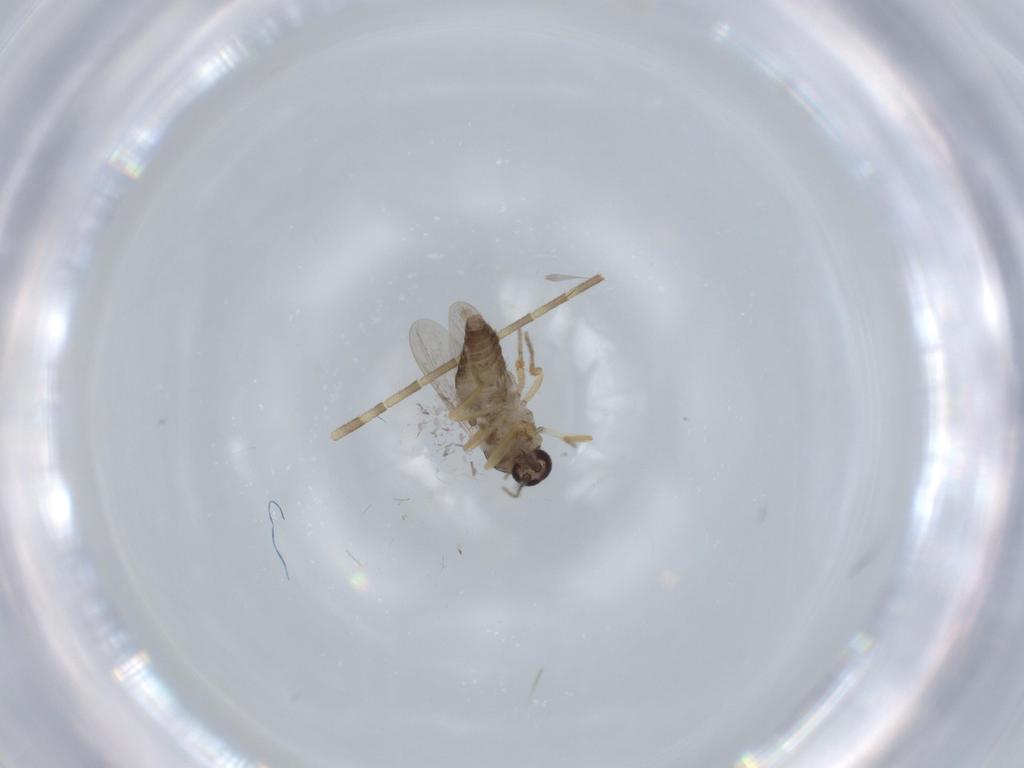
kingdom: Animalia
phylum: Arthropoda
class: Insecta
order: Diptera
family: Ceratopogonidae
